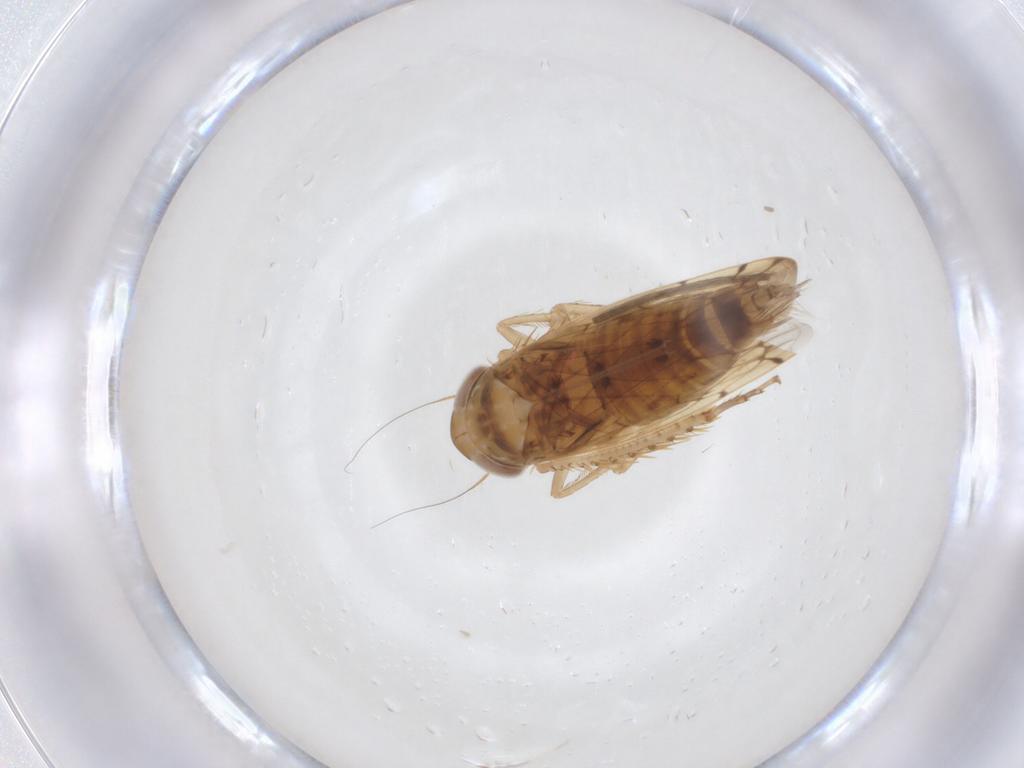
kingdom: Animalia
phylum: Arthropoda
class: Insecta
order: Hemiptera
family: Cicadellidae
